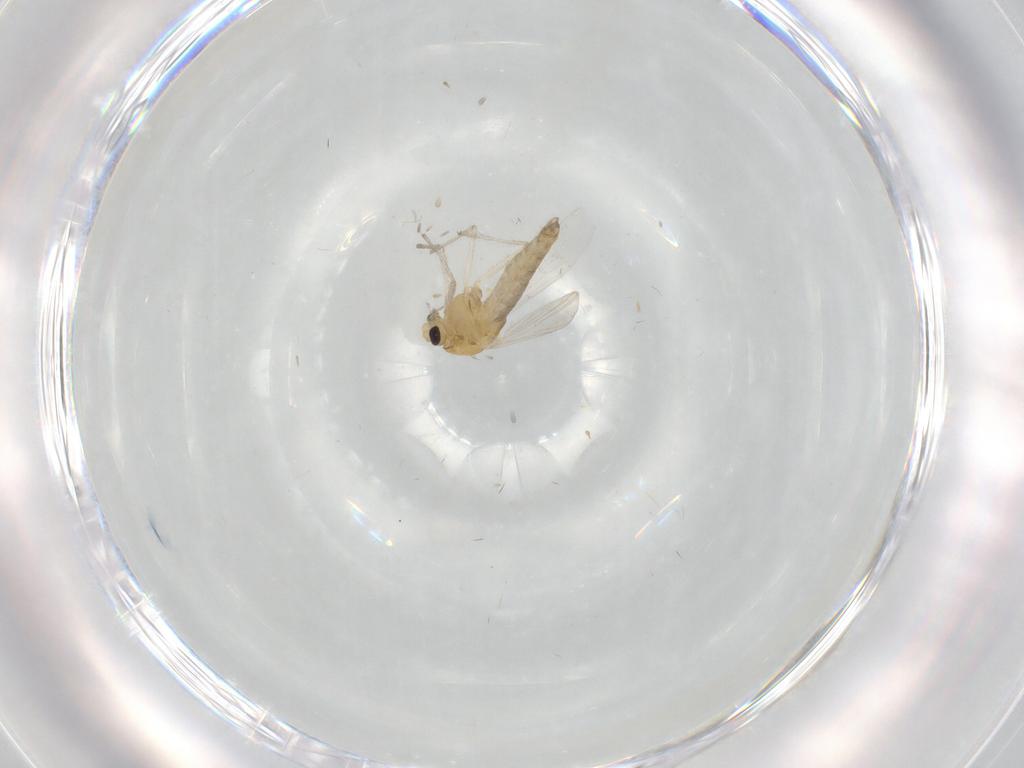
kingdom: Animalia
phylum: Arthropoda
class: Insecta
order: Diptera
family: Chironomidae
